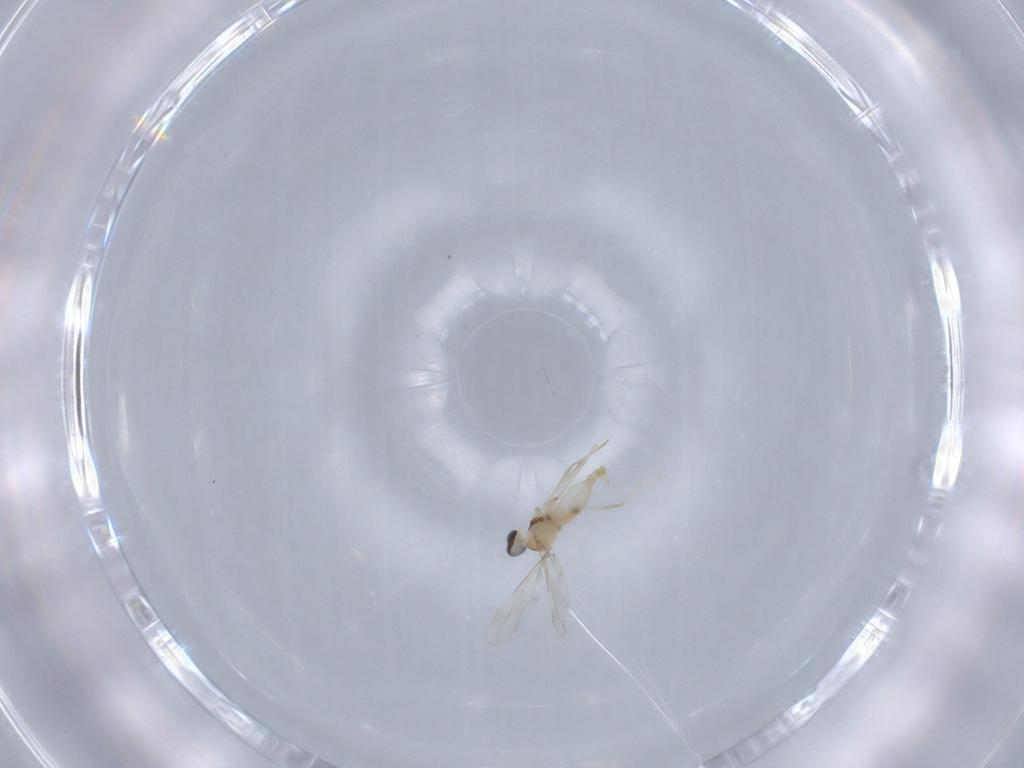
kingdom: Animalia
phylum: Arthropoda
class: Insecta
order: Diptera
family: Cecidomyiidae
